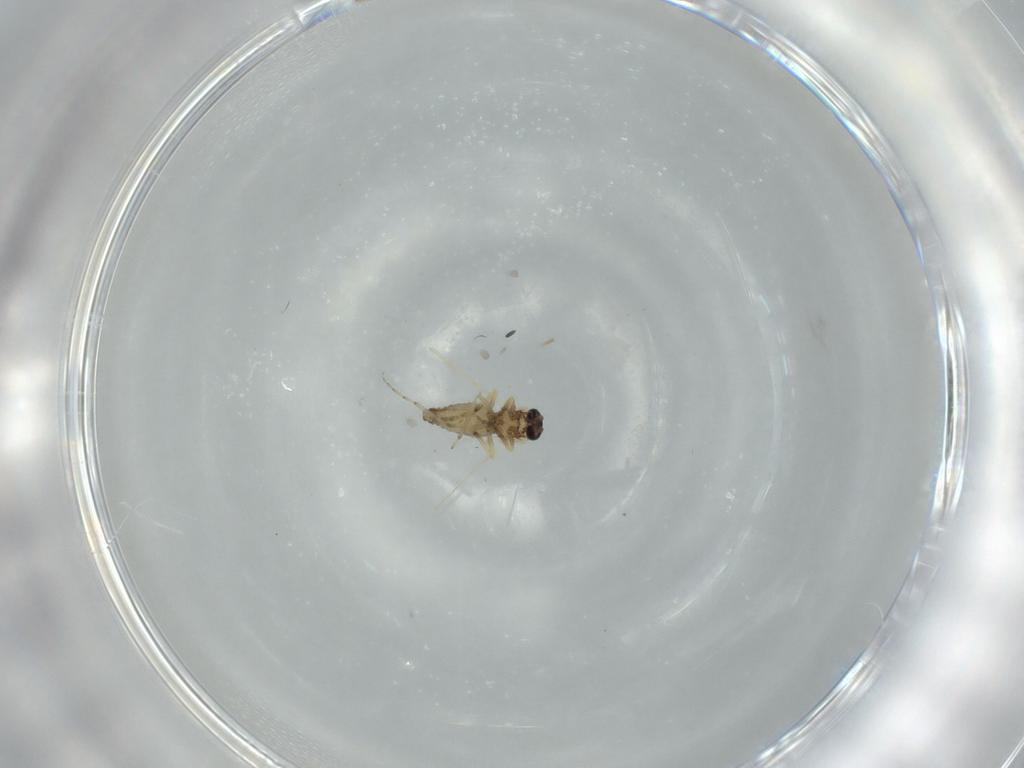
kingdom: Animalia
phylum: Arthropoda
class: Insecta
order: Diptera
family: Ceratopogonidae
